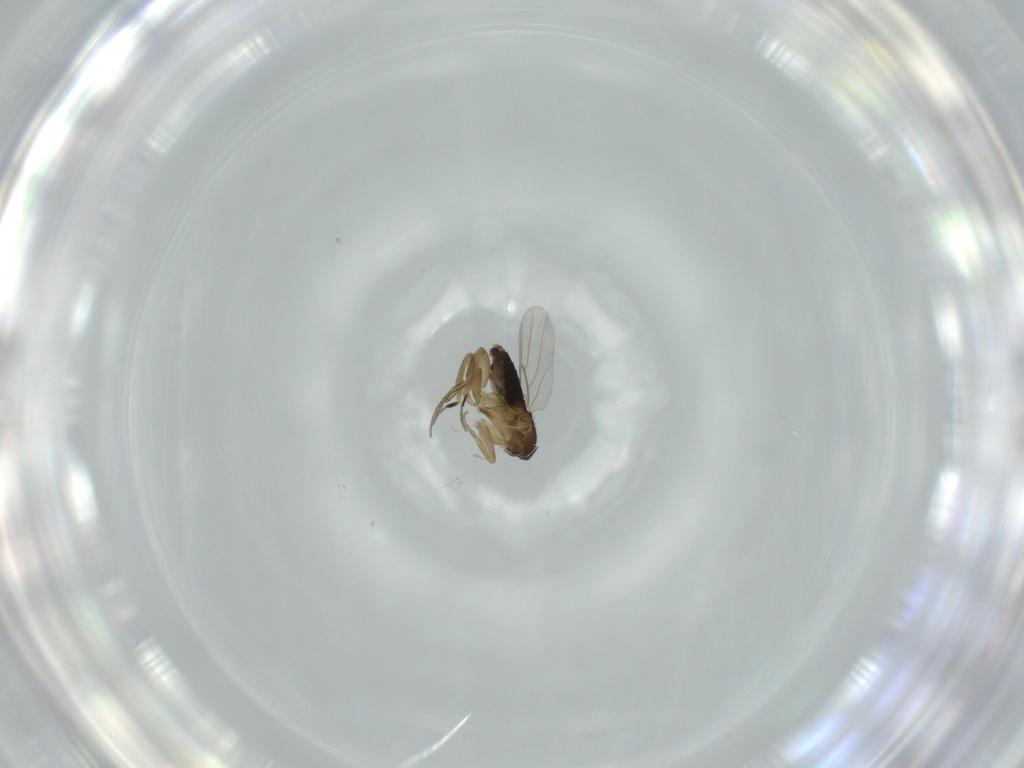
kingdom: Animalia
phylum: Arthropoda
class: Insecta
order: Diptera
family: Phoridae
